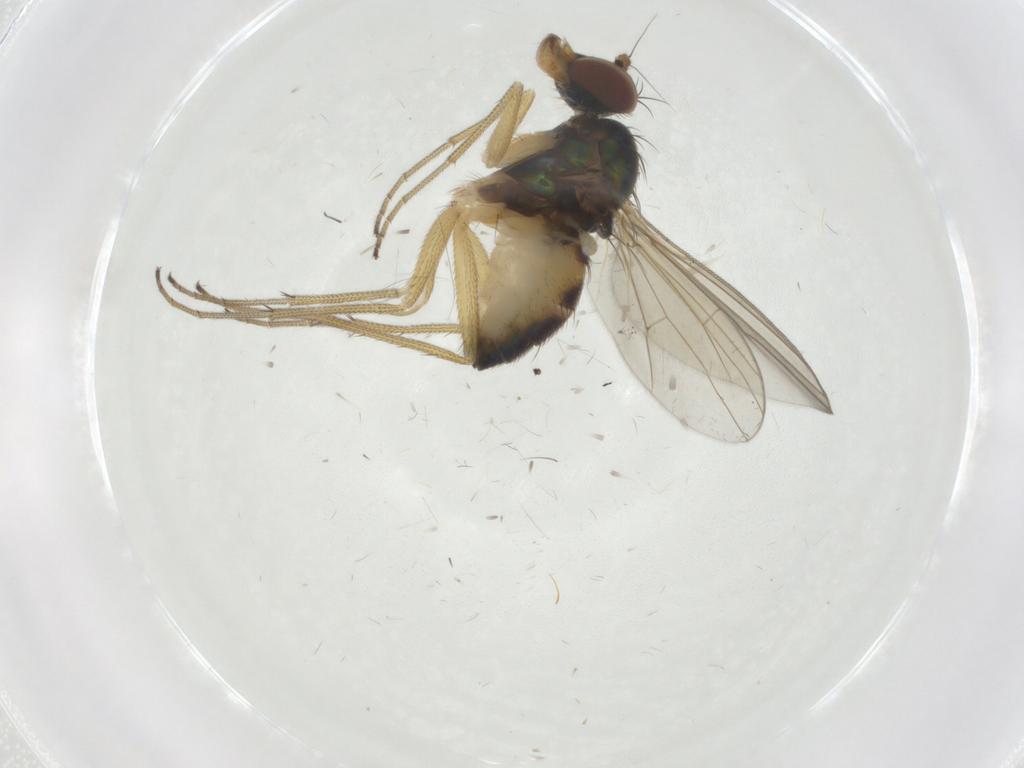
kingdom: Animalia
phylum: Arthropoda
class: Insecta
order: Diptera
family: Dolichopodidae
